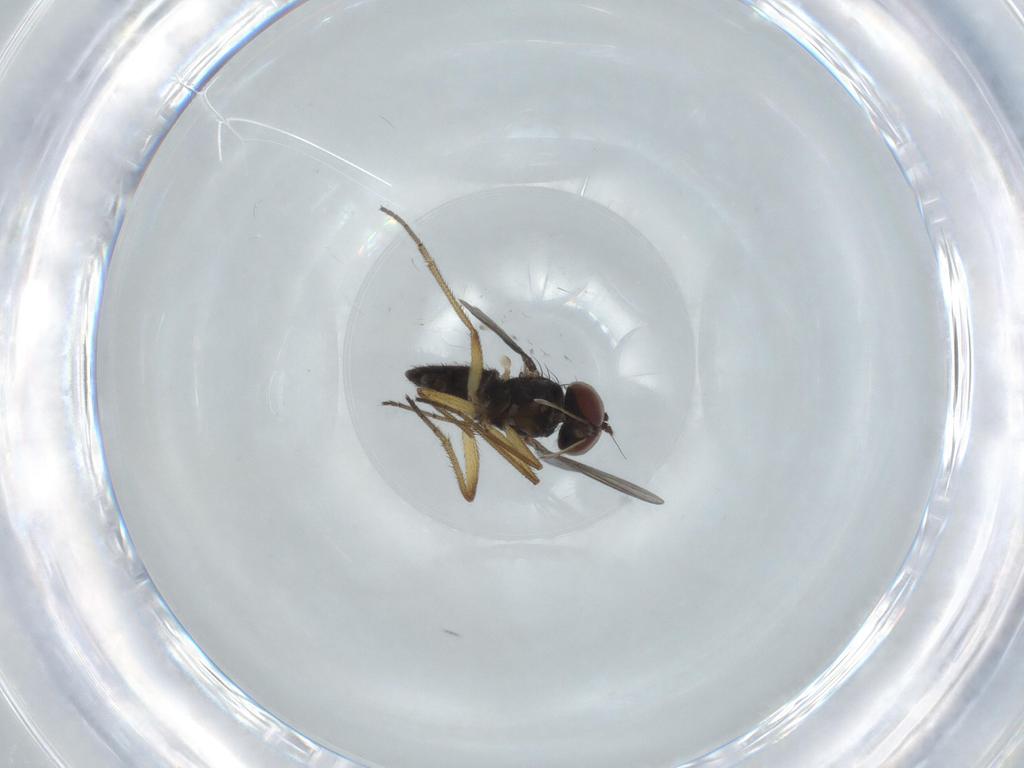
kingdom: Animalia
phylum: Arthropoda
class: Insecta
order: Diptera
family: Dolichopodidae
